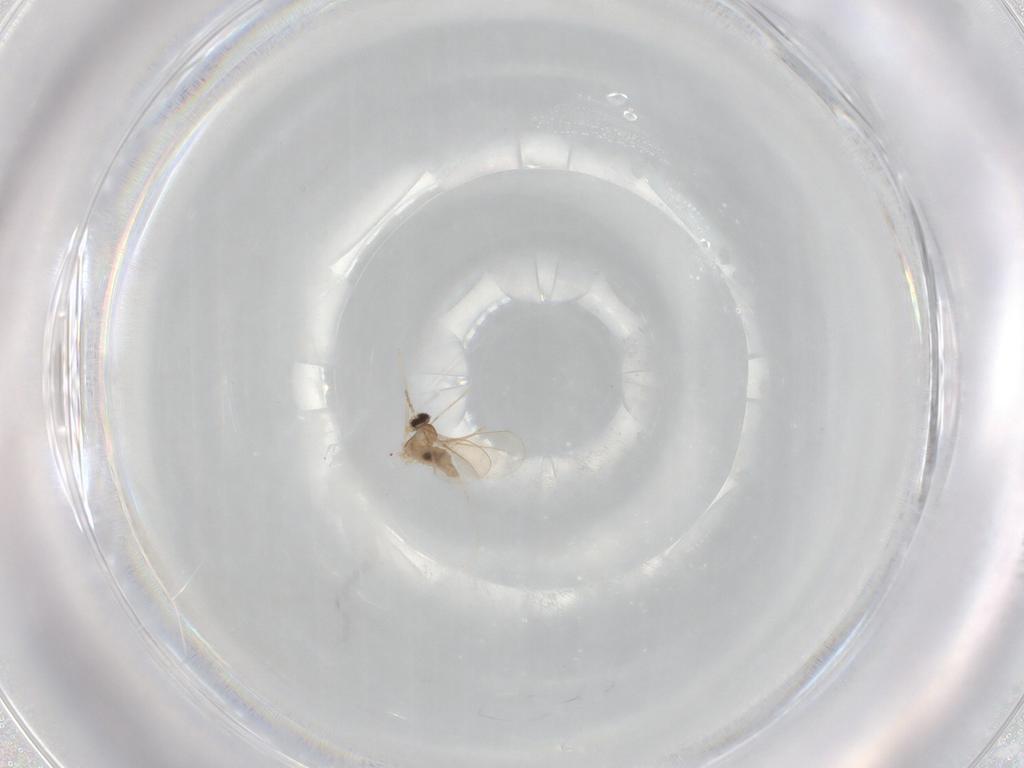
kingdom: Animalia
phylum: Arthropoda
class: Insecta
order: Diptera
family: Cecidomyiidae
